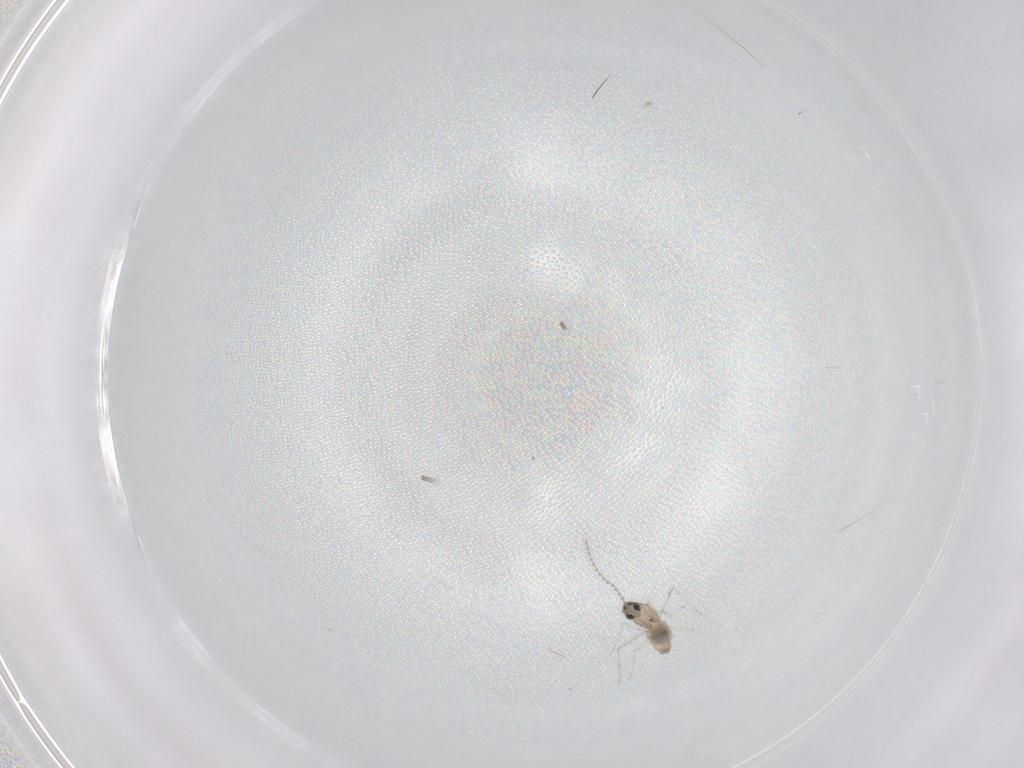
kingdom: Animalia
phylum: Arthropoda
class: Insecta
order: Diptera
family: Cecidomyiidae
